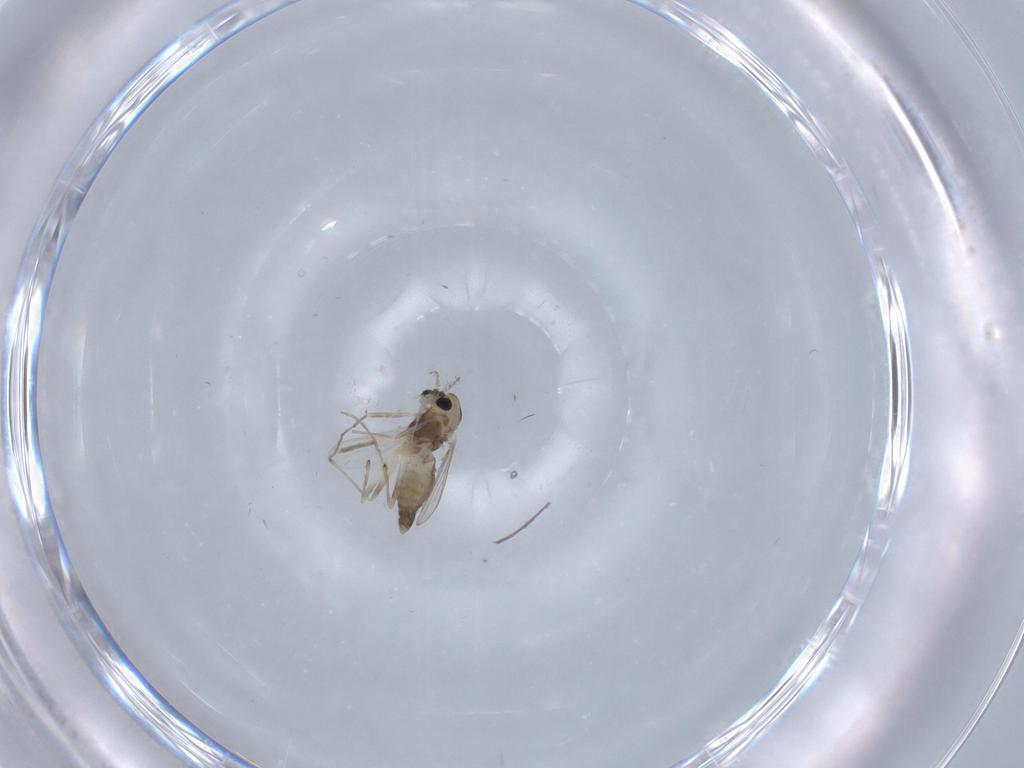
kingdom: Animalia
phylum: Arthropoda
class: Insecta
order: Diptera
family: Chironomidae
